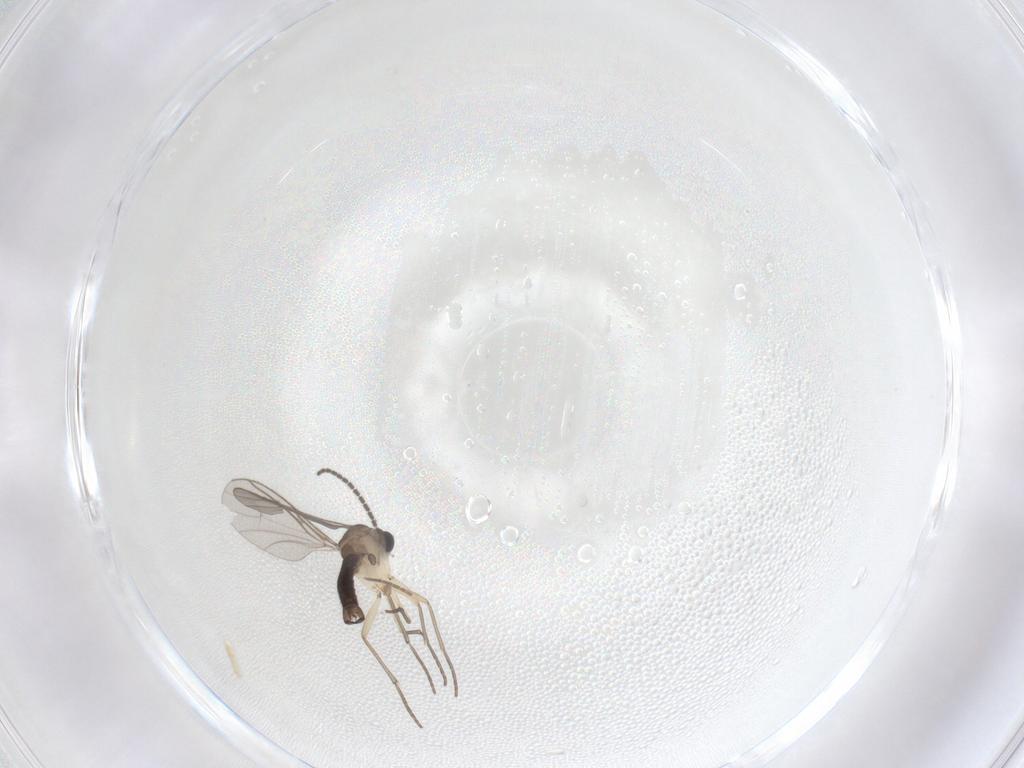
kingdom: Animalia
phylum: Arthropoda
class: Insecta
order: Diptera
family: Sciaridae
